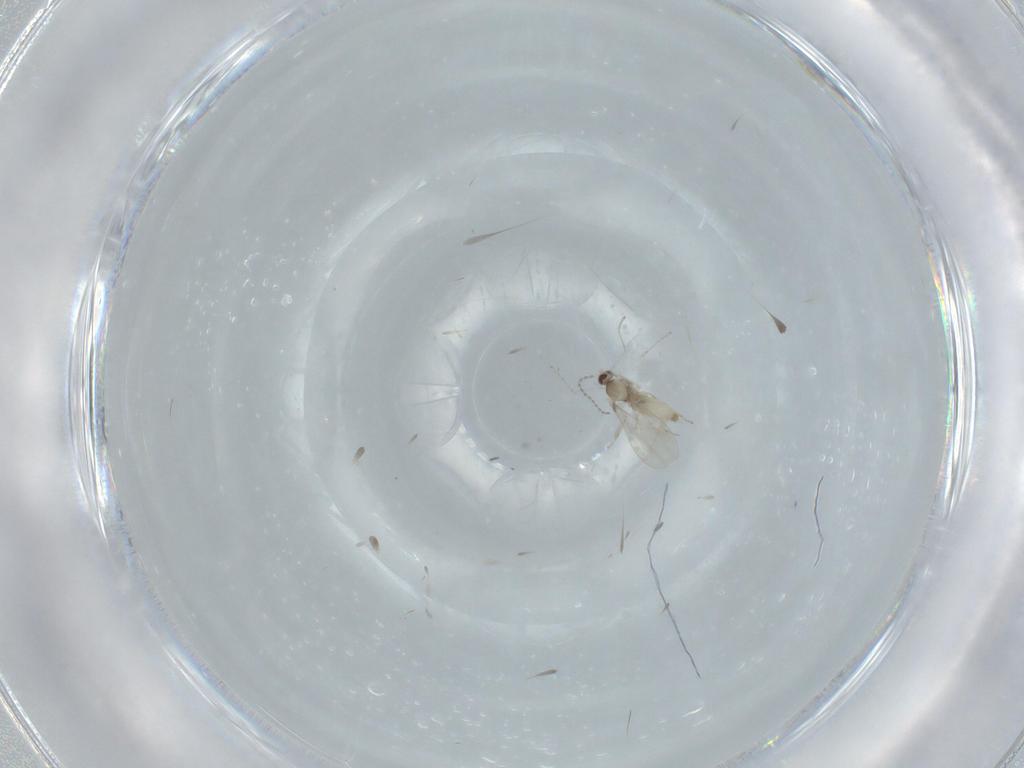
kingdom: Animalia
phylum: Arthropoda
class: Insecta
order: Diptera
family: Cecidomyiidae
